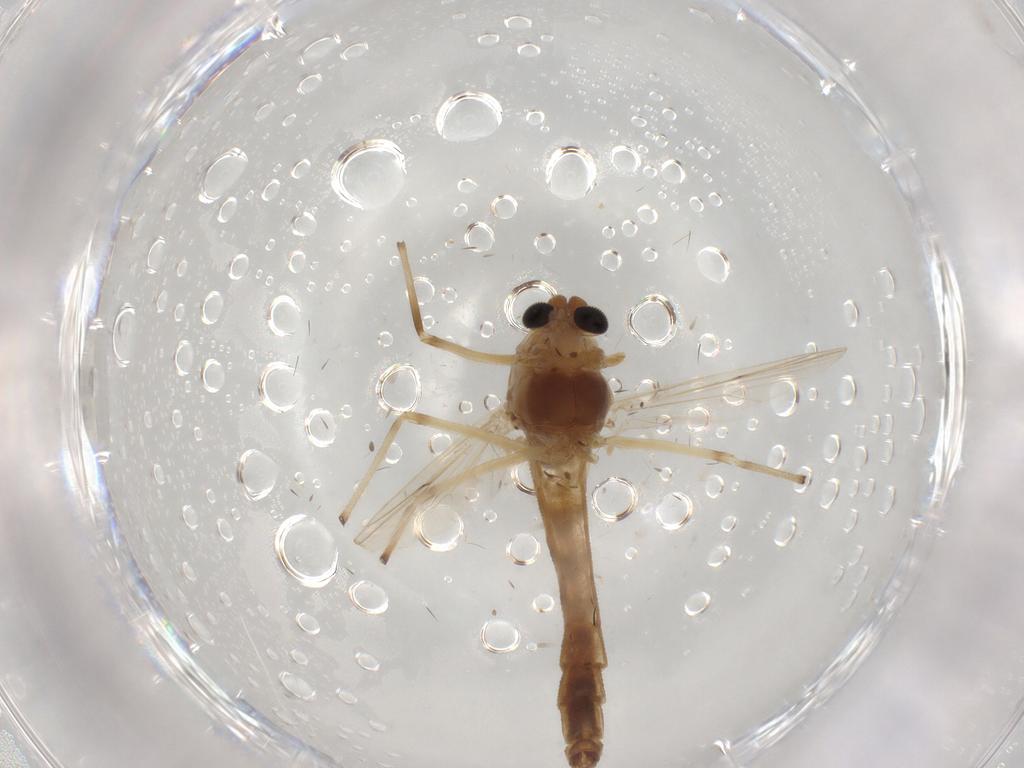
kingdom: Animalia
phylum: Arthropoda
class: Insecta
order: Diptera
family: Chironomidae
